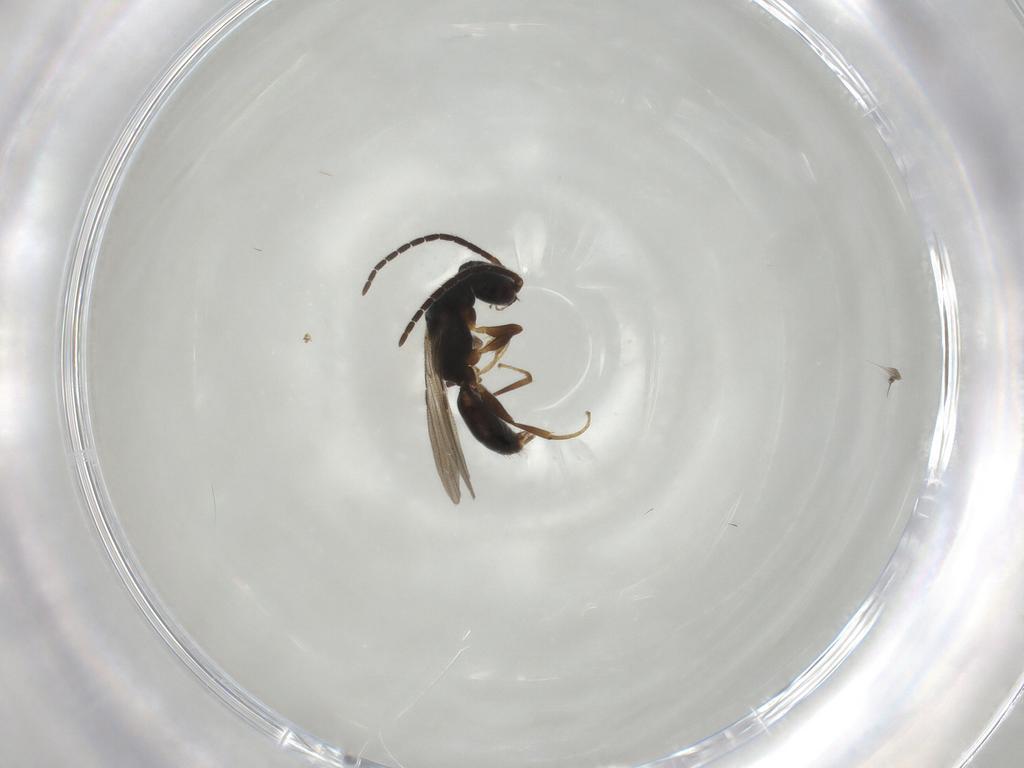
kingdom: Animalia
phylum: Arthropoda
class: Insecta
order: Hymenoptera
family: Bethylidae
